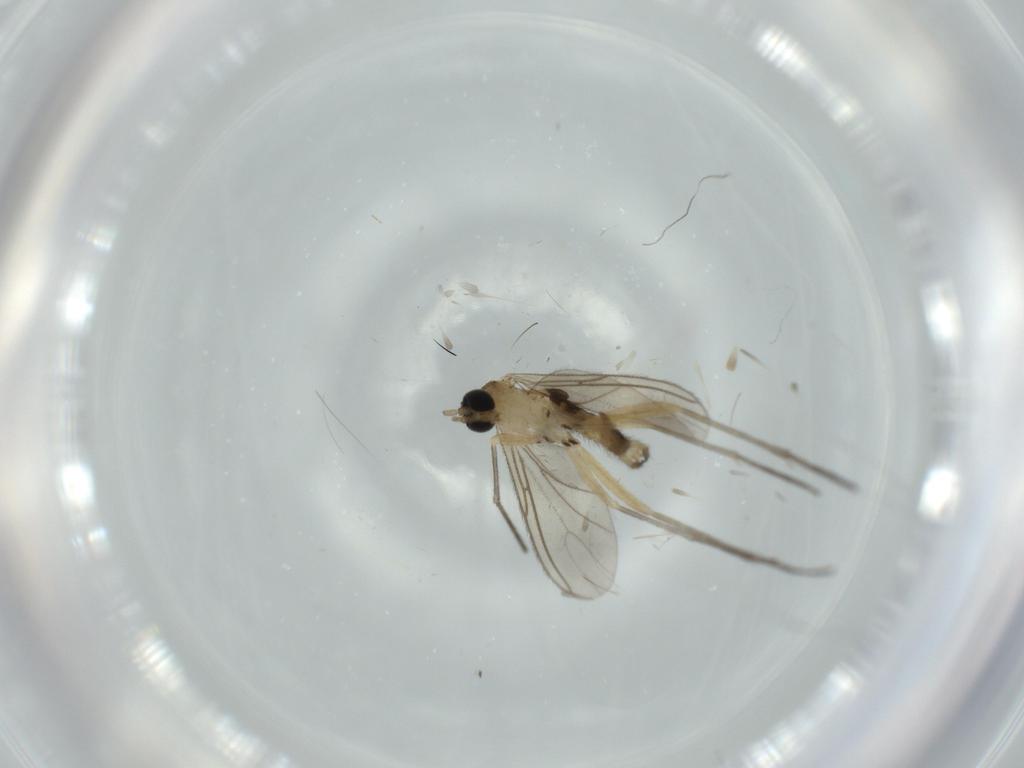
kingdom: Animalia
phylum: Arthropoda
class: Insecta
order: Diptera
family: Sciaridae
